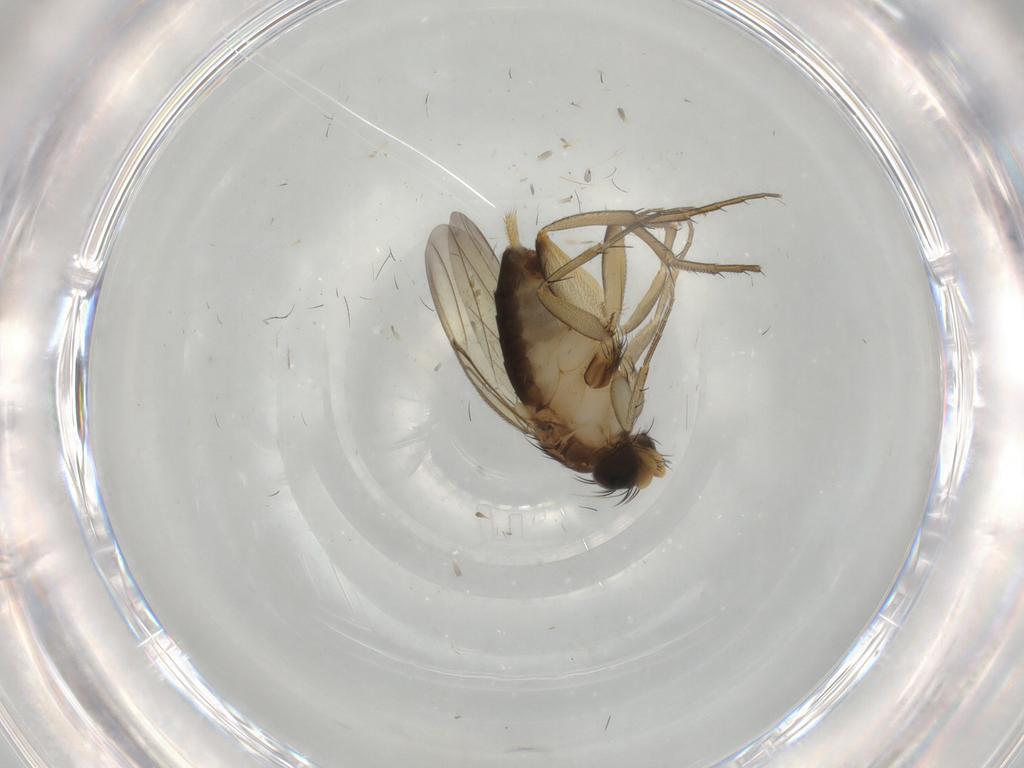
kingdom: Animalia
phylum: Arthropoda
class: Insecta
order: Diptera
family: Phoridae
